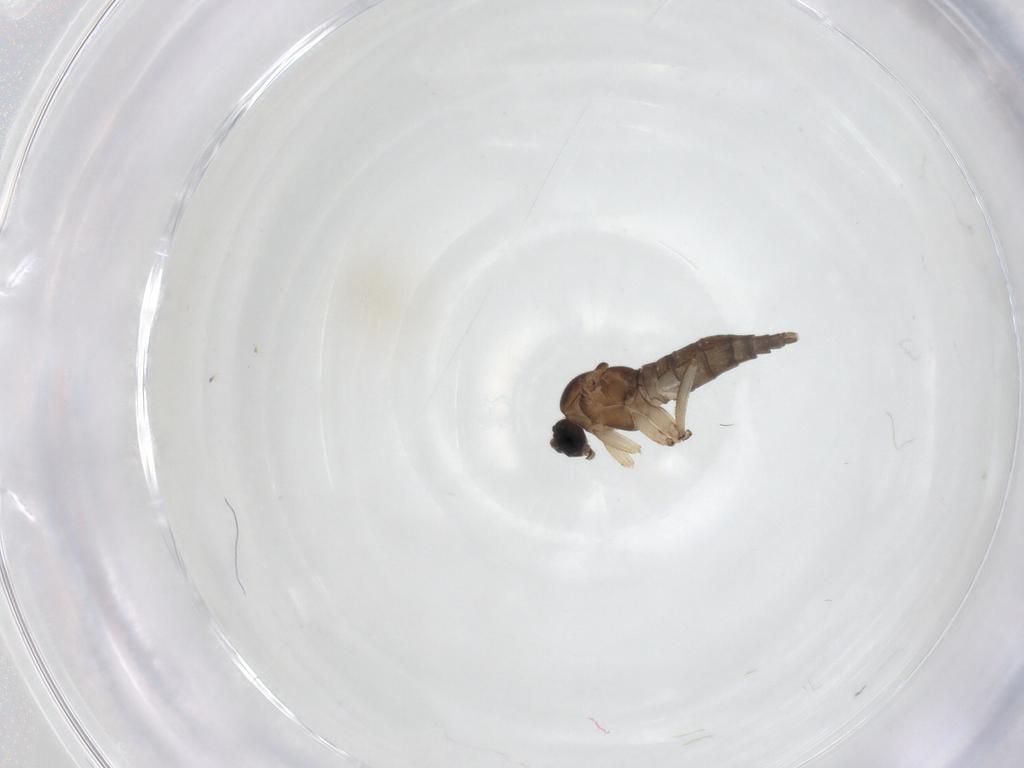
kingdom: Animalia
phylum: Arthropoda
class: Insecta
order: Diptera
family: Sciaridae
